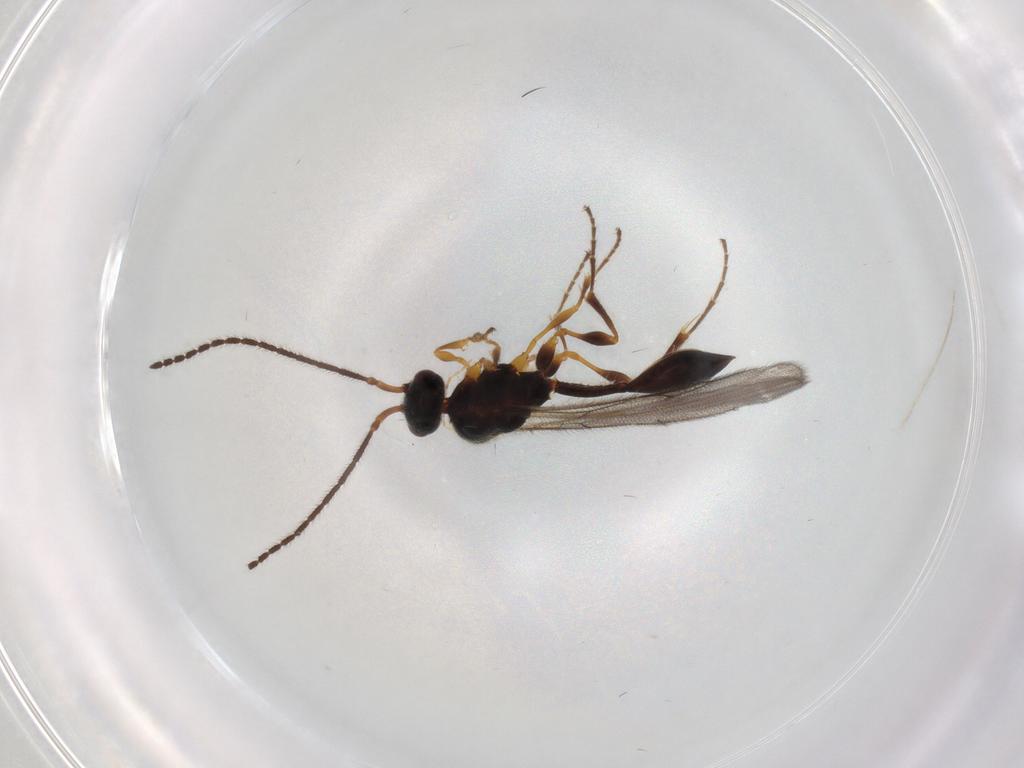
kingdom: Animalia
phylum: Arthropoda
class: Insecta
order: Hymenoptera
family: Diapriidae
